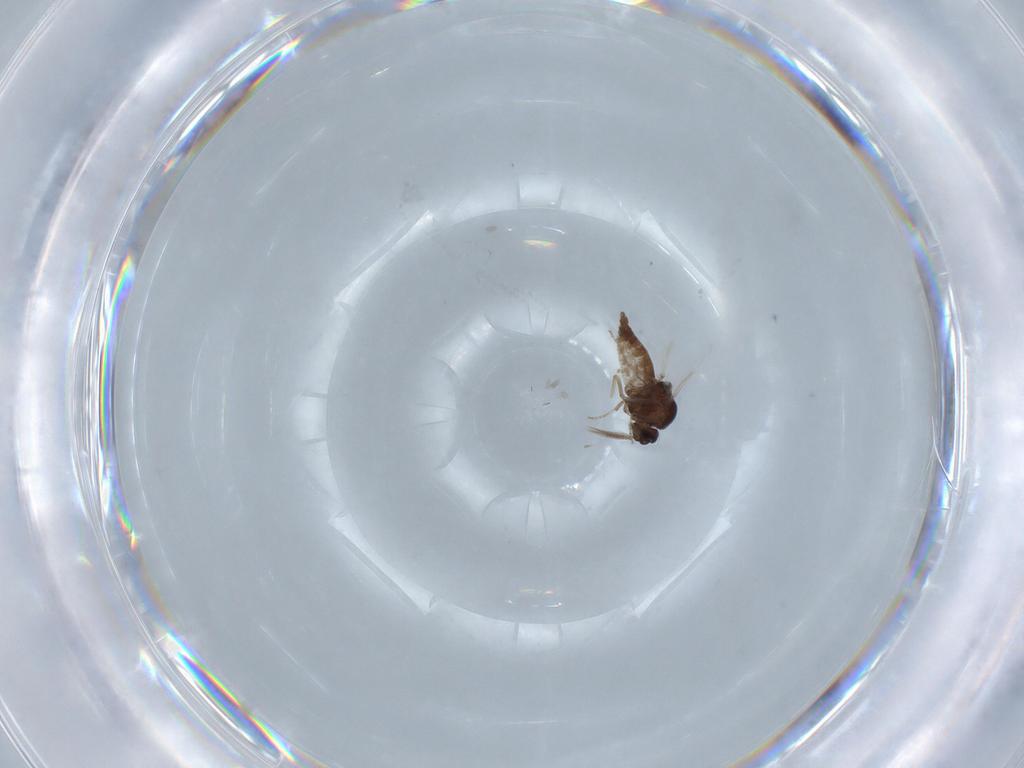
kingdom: Animalia
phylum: Arthropoda
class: Insecta
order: Diptera
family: Ceratopogonidae
